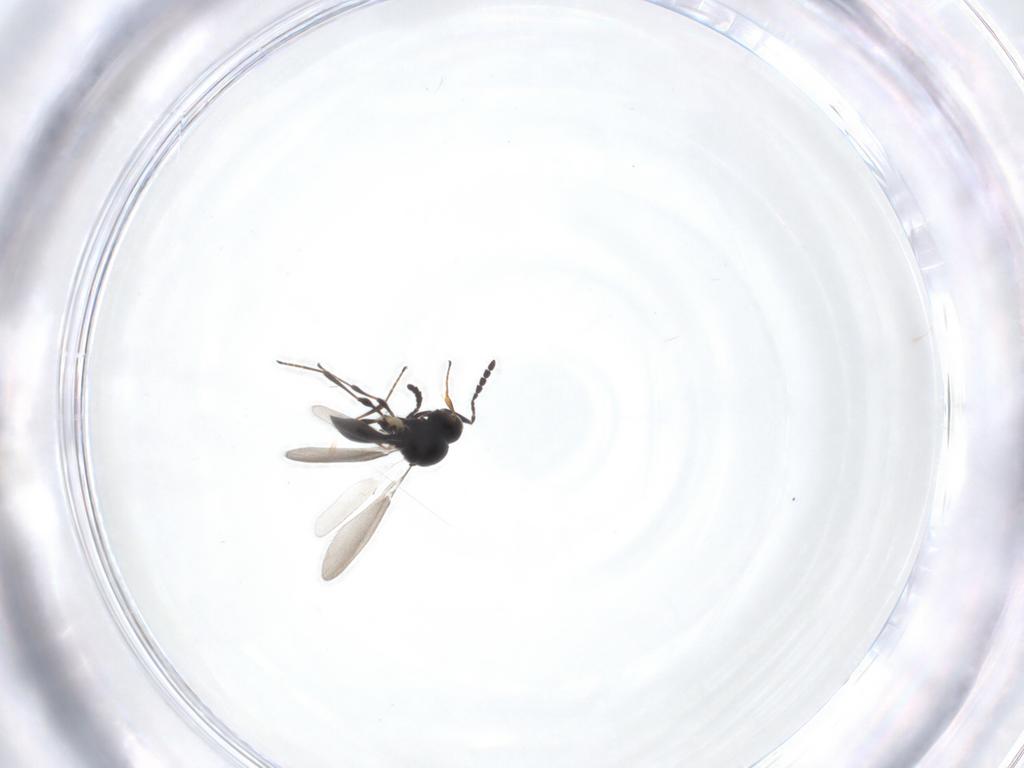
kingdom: Animalia
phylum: Arthropoda
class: Insecta
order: Hymenoptera
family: Platygastridae
